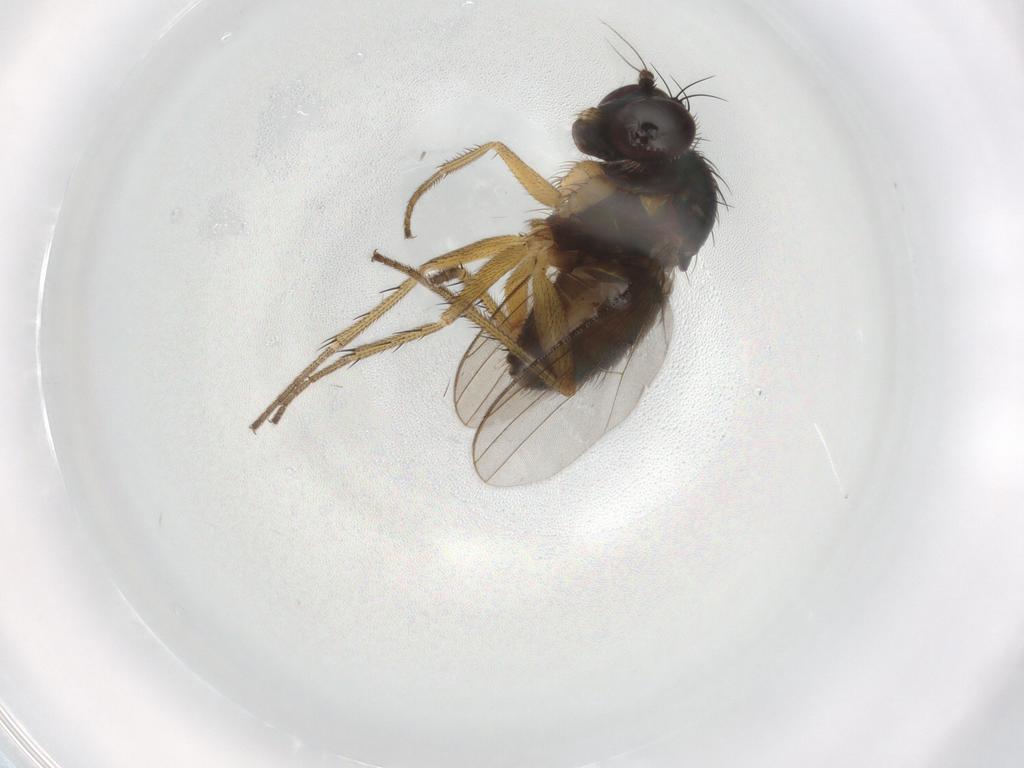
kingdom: Animalia
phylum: Arthropoda
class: Insecta
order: Diptera
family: Dolichopodidae
